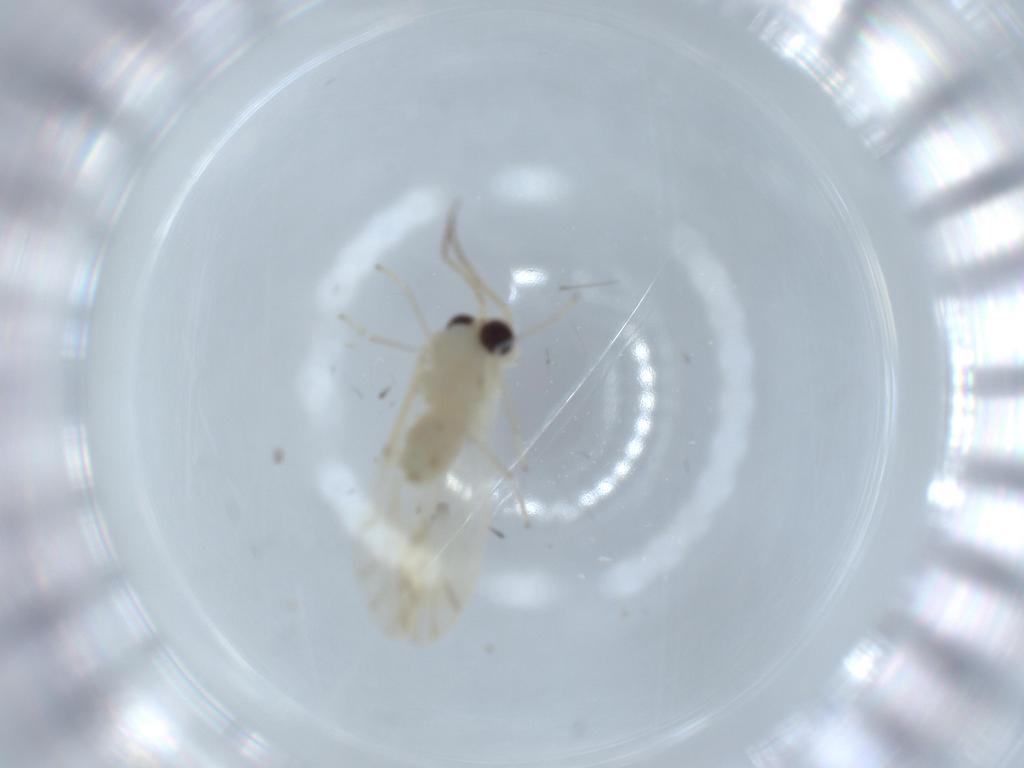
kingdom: Animalia
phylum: Arthropoda
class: Insecta
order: Psocodea
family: Caeciliusidae
